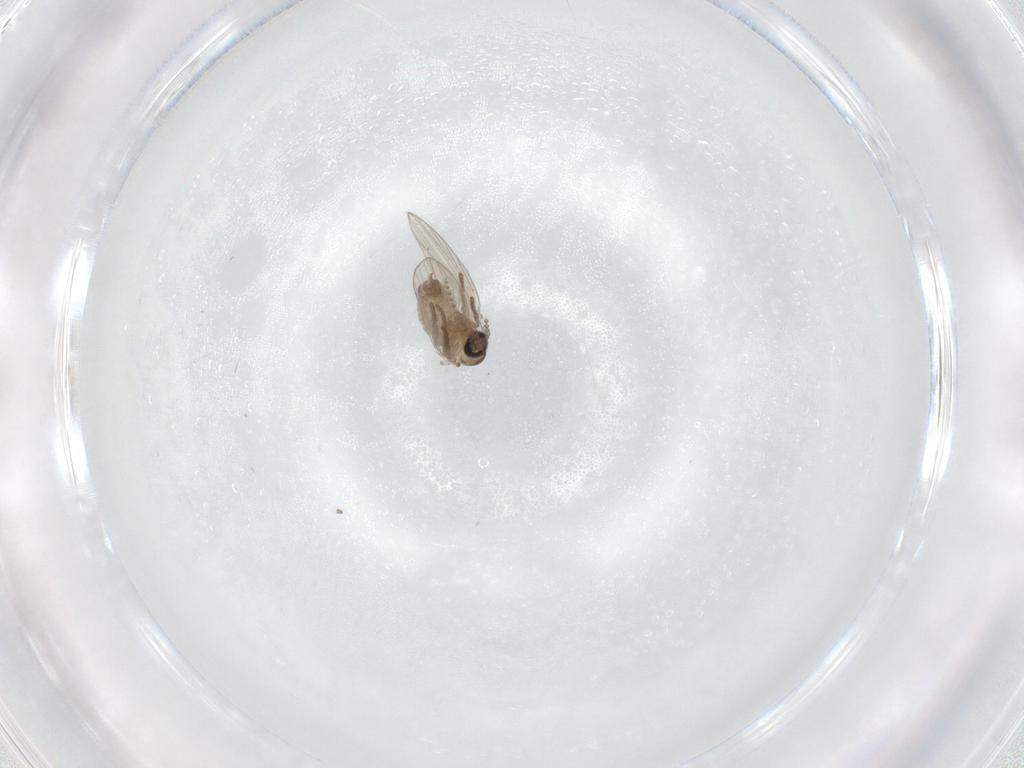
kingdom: Animalia
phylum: Arthropoda
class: Insecta
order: Diptera
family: Psychodidae
